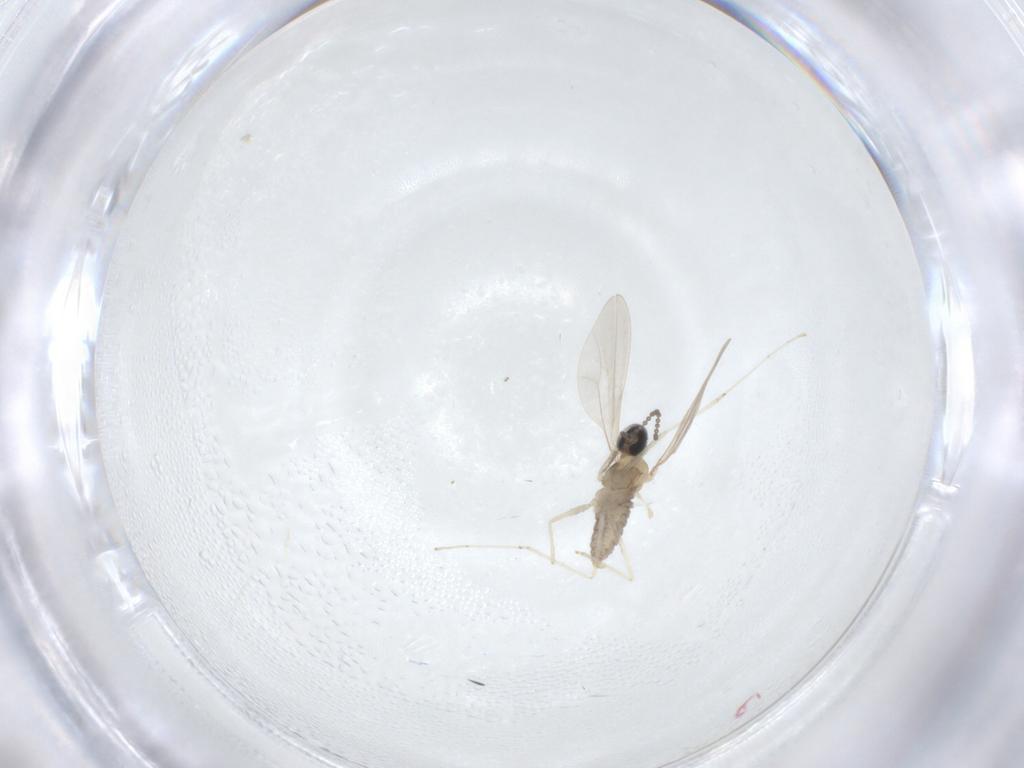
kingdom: Animalia
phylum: Arthropoda
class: Insecta
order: Diptera
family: Cecidomyiidae
